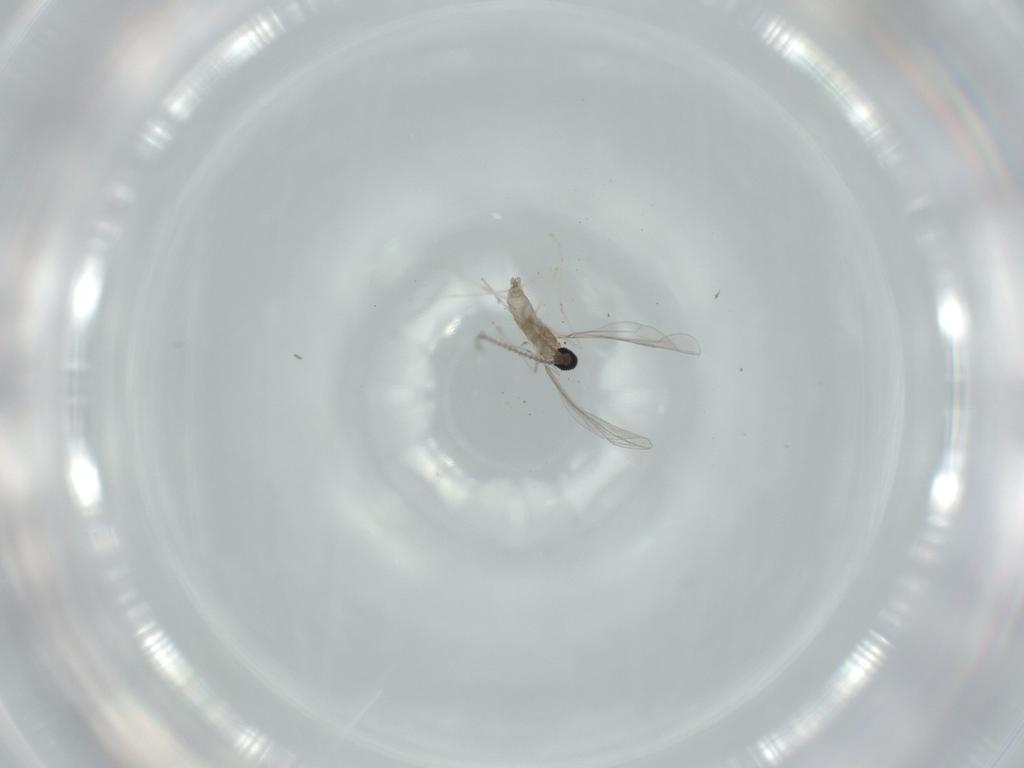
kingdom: Animalia
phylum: Arthropoda
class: Insecta
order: Diptera
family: Cecidomyiidae
